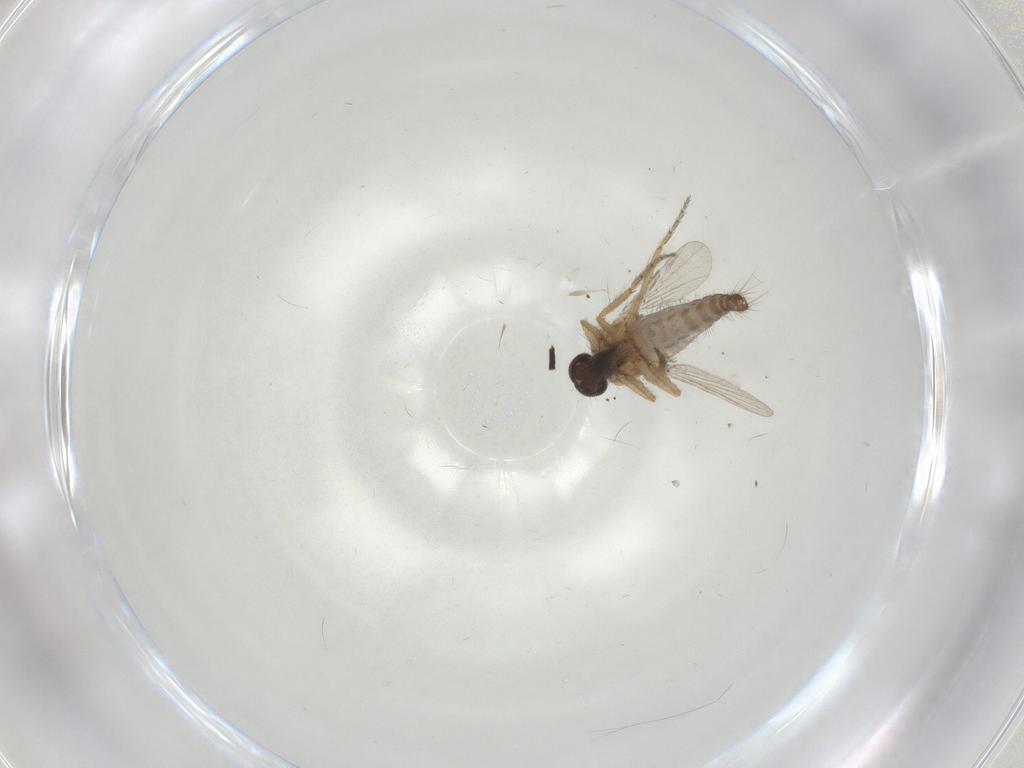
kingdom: Animalia
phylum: Arthropoda
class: Insecta
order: Diptera
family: Ceratopogonidae
